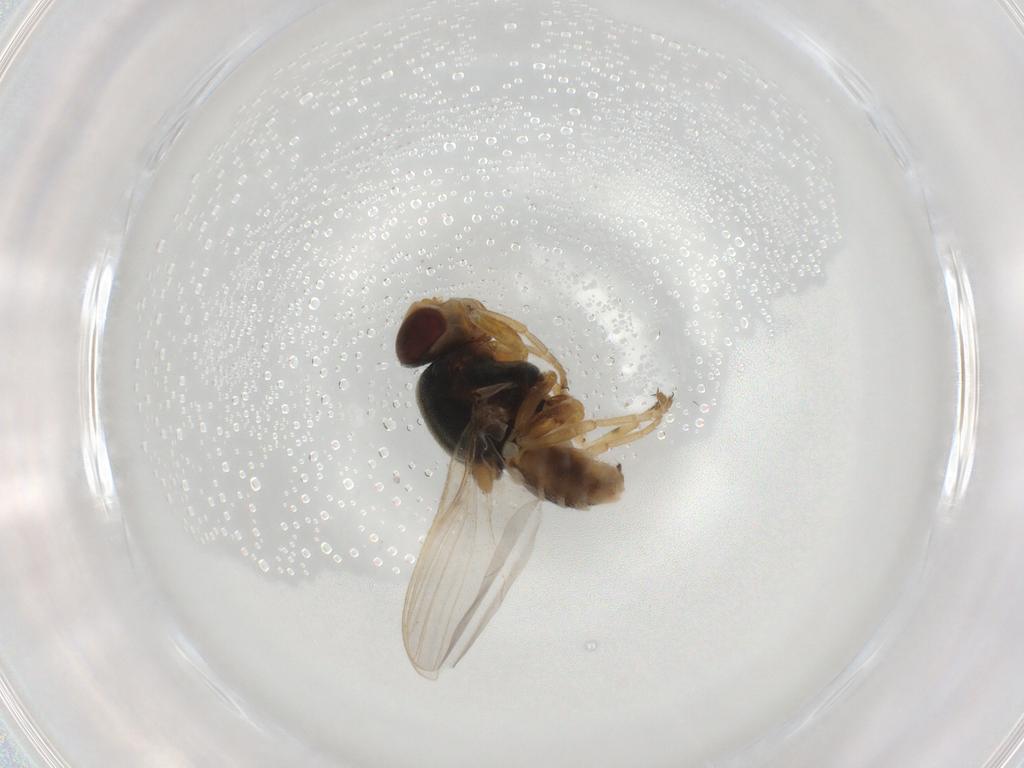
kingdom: Animalia
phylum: Arthropoda
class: Insecta
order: Diptera
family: Chloropidae
